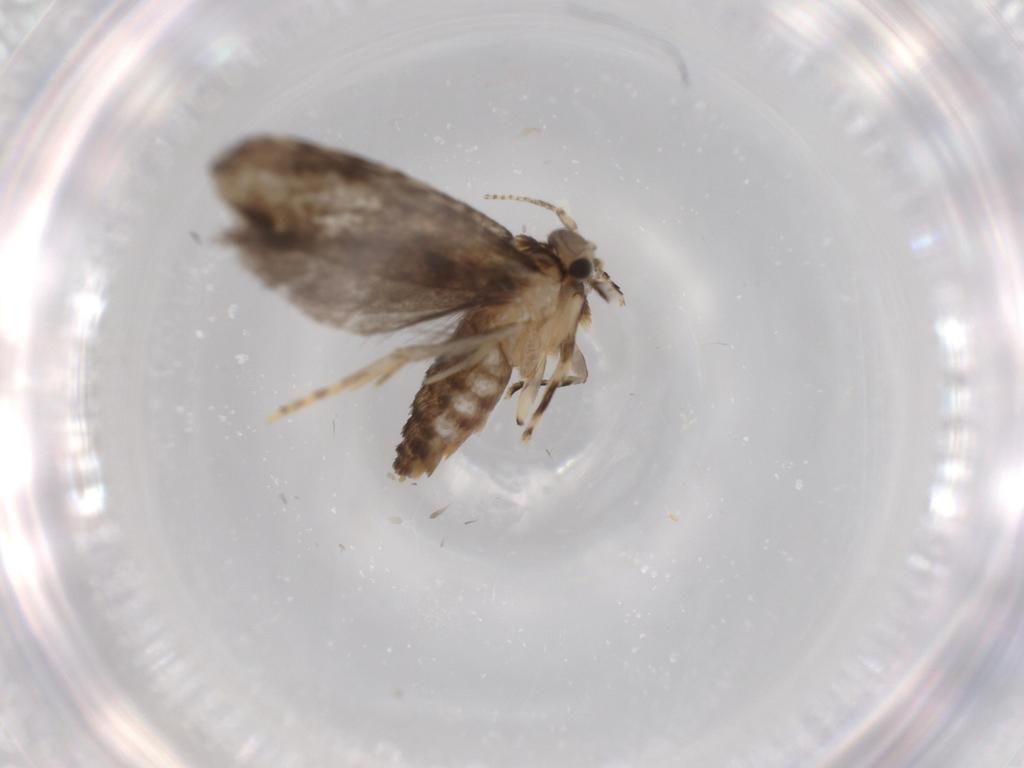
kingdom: Animalia
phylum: Arthropoda
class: Insecta
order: Lepidoptera
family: Tineidae
